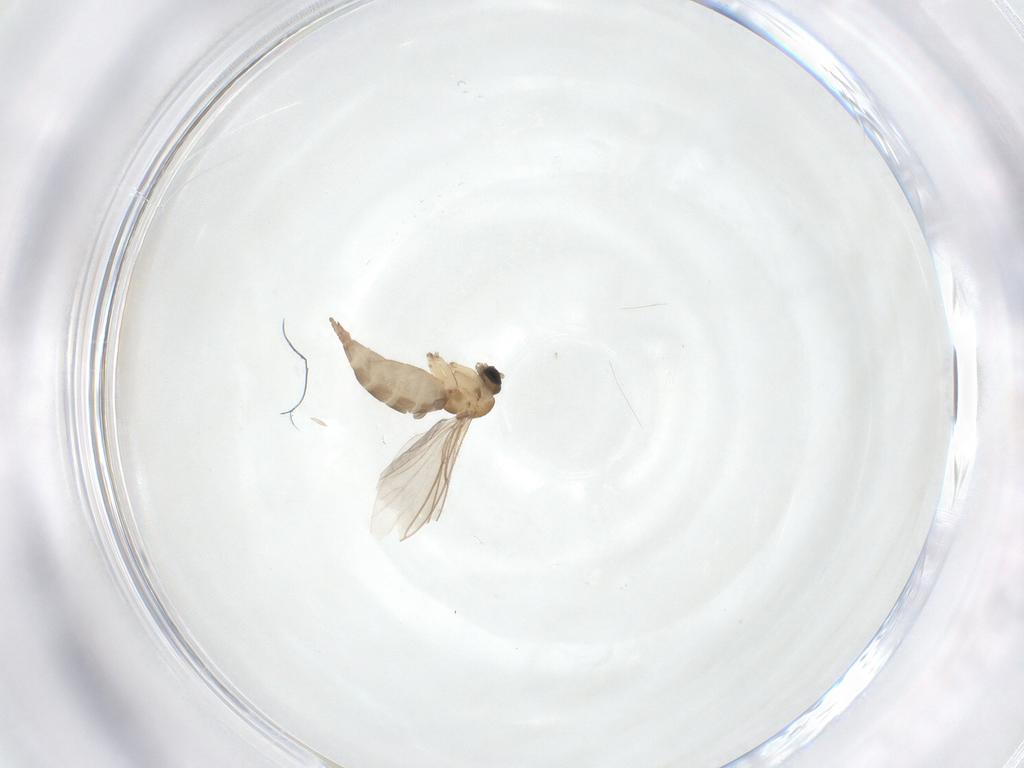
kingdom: Animalia
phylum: Arthropoda
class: Insecta
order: Diptera
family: Sciaridae
